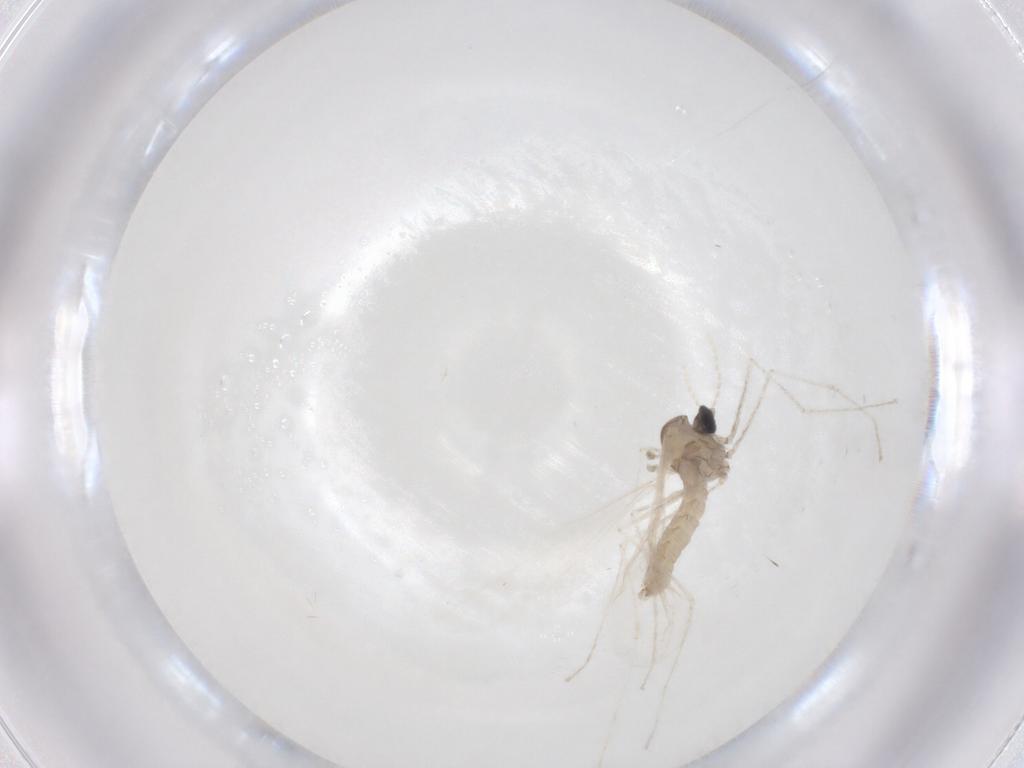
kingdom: Animalia
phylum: Arthropoda
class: Insecta
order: Diptera
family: Cecidomyiidae
